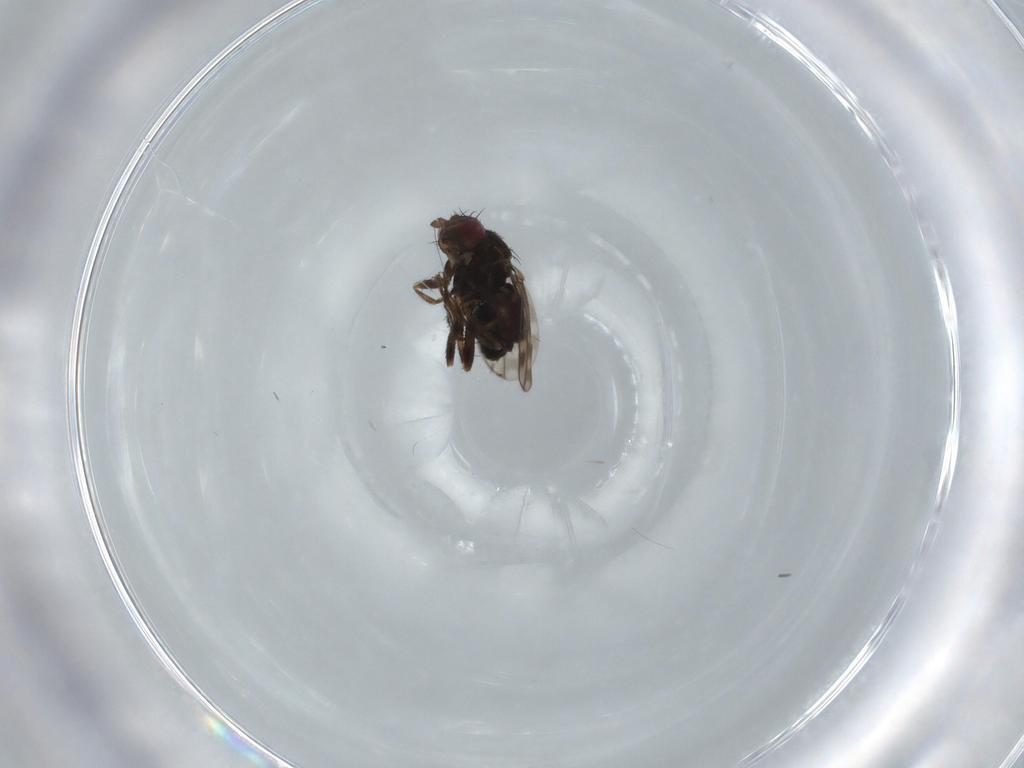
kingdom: Animalia
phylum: Arthropoda
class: Insecta
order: Diptera
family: Sphaeroceridae
